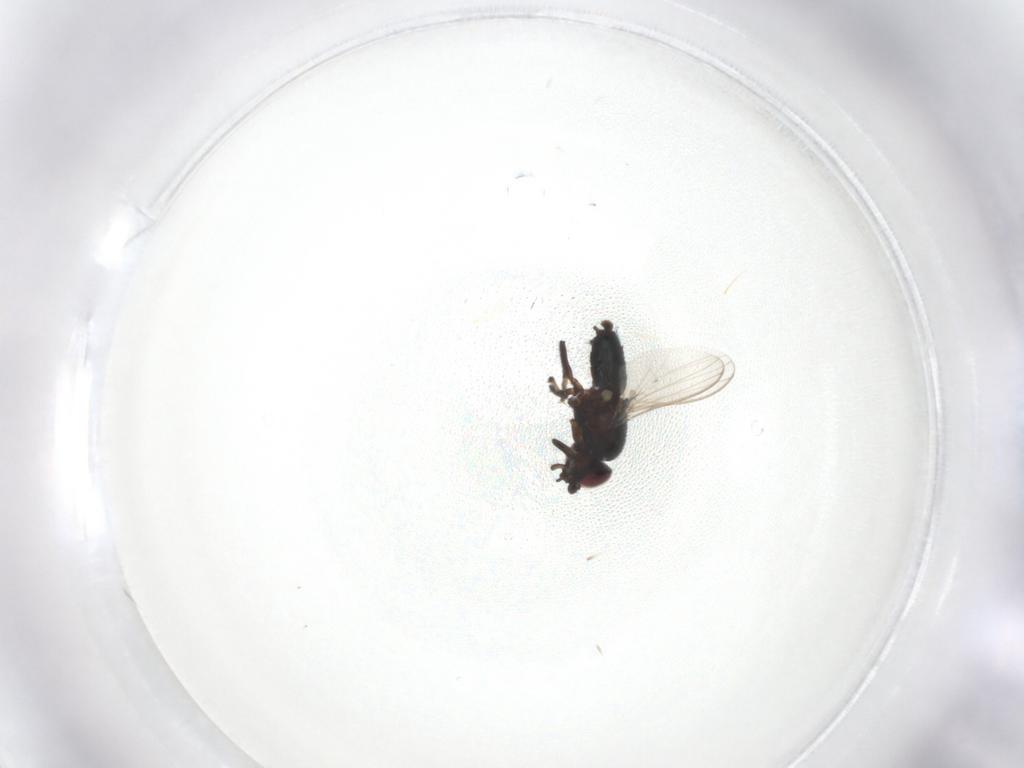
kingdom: Animalia
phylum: Arthropoda
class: Insecta
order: Diptera
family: Milichiidae
